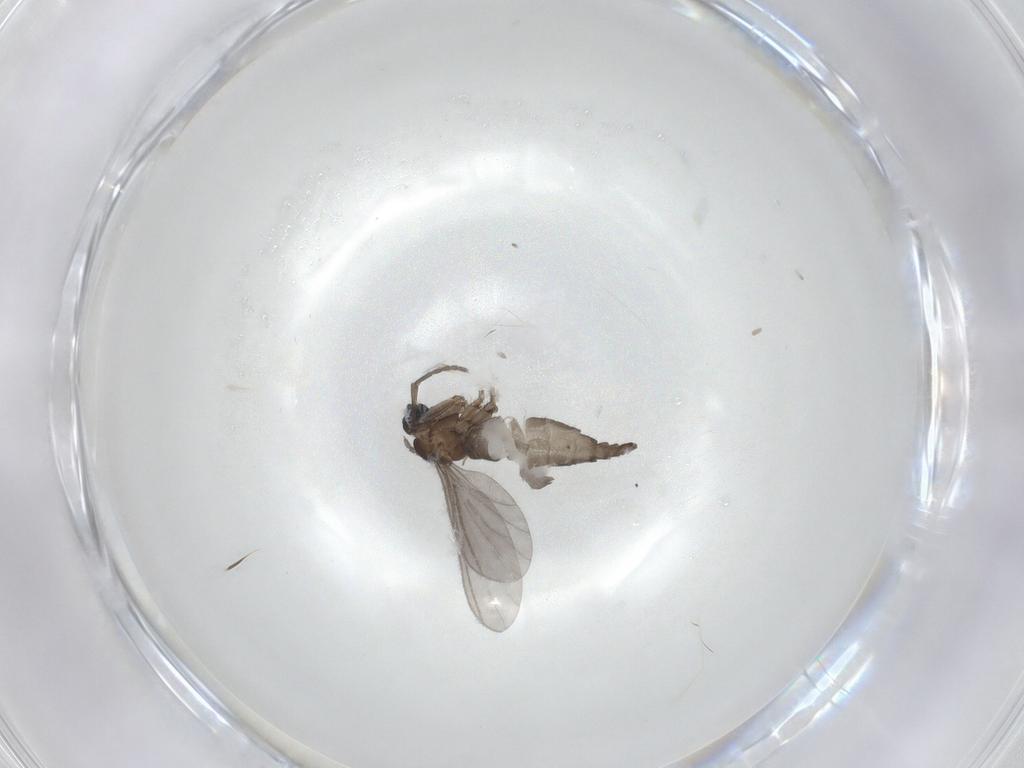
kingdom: Animalia
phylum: Arthropoda
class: Insecta
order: Diptera
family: Sciaridae
